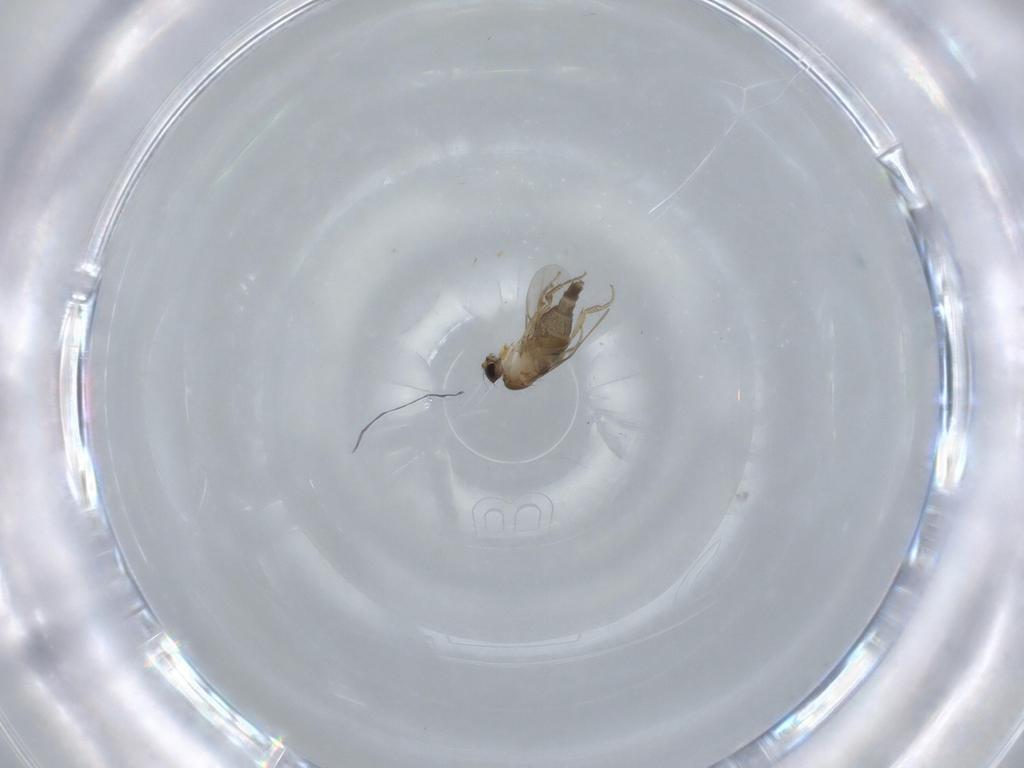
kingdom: Animalia
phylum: Arthropoda
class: Insecta
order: Diptera
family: Phoridae
